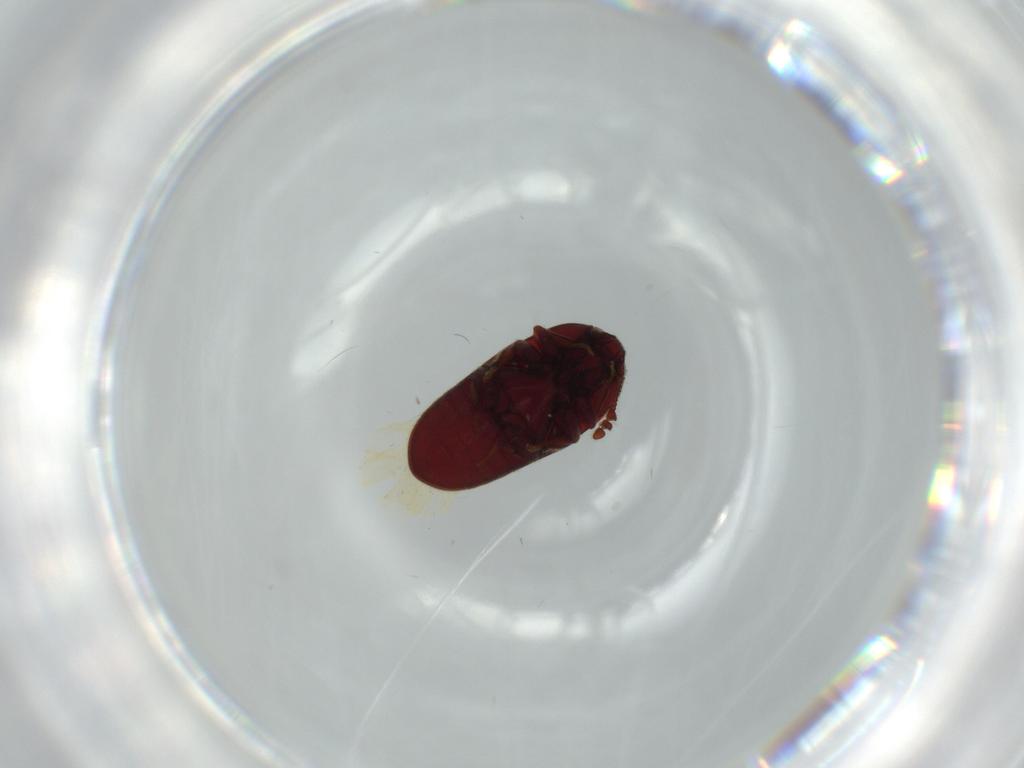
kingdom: Animalia
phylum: Arthropoda
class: Insecta
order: Coleoptera
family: Throscidae
